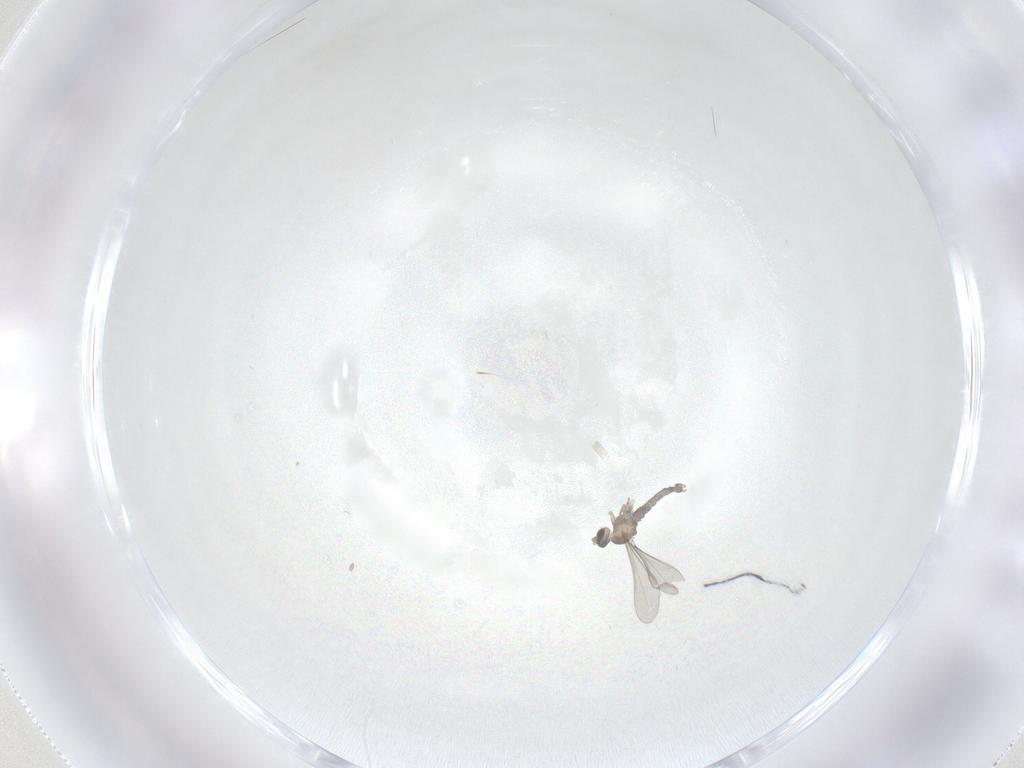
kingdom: Animalia
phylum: Arthropoda
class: Insecta
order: Diptera
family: Cecidomyiidae
